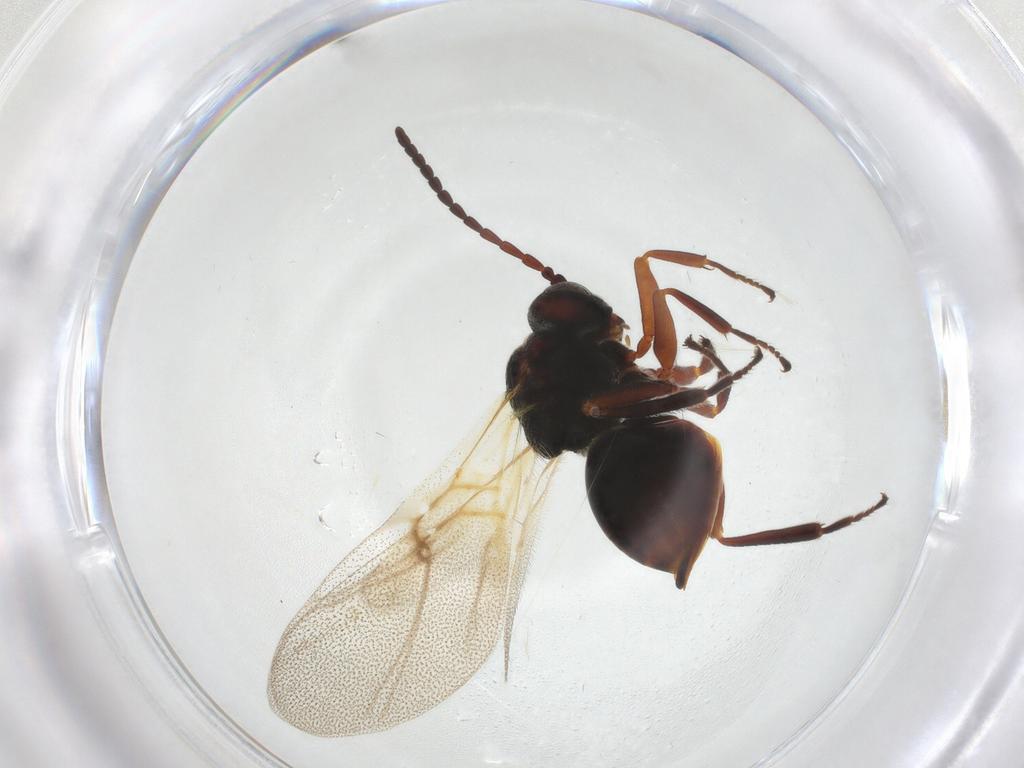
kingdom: Animalia
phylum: Arthropoda
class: Insecta
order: Hymenoptera
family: Cynipidae
